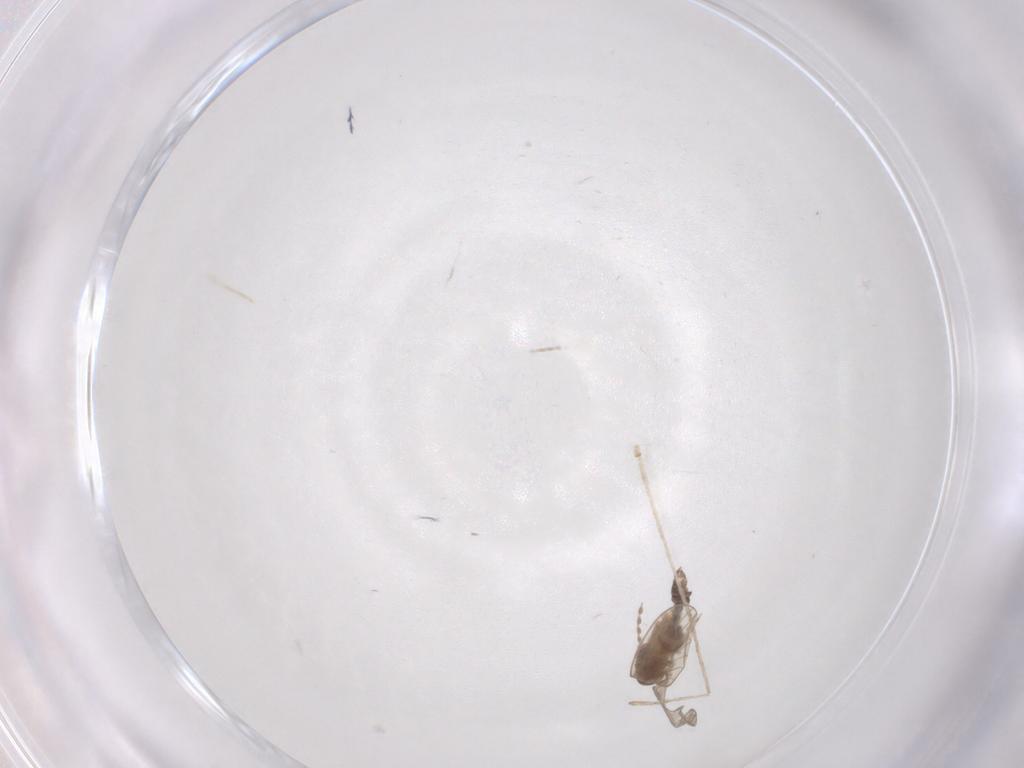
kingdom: Animalia
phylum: Arthropoda
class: Insecta
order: Diptera
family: Psychodidae
